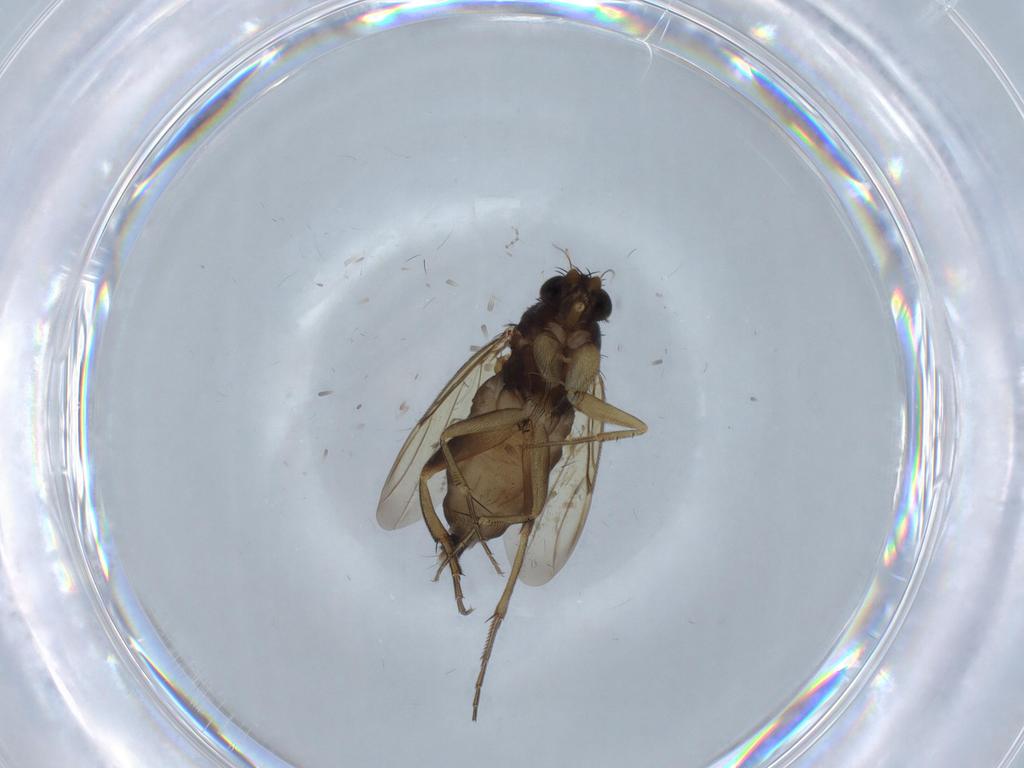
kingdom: Animalia
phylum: Arthropoda
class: Insecta
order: Diptera
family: Phoridae
